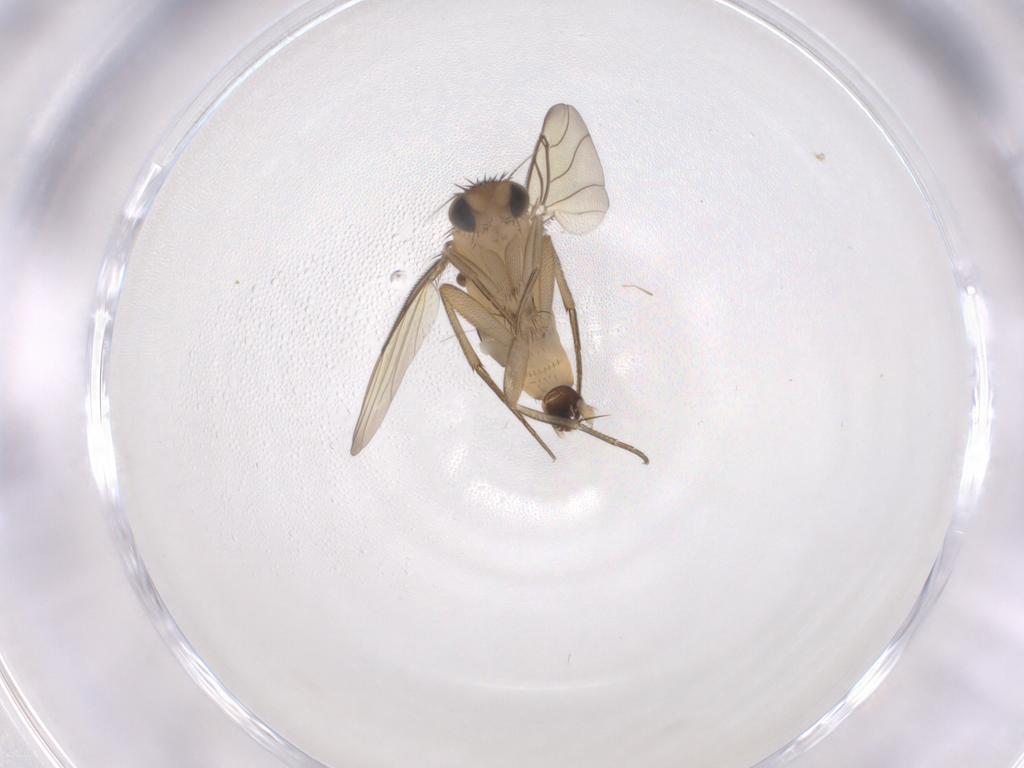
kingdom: Animalia
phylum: Arthropoda
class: Insecta
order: Diptera
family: Phoridae
